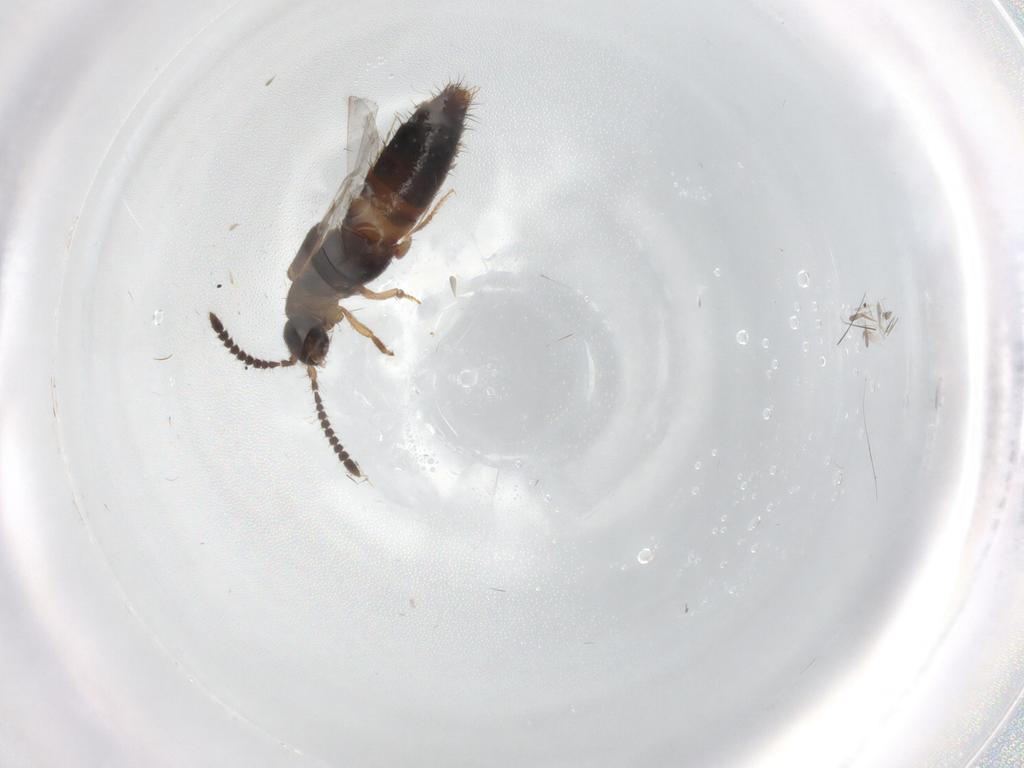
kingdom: Animalia
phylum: Arthropoda
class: Insecta
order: Coleoptera
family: Staphylinidae
